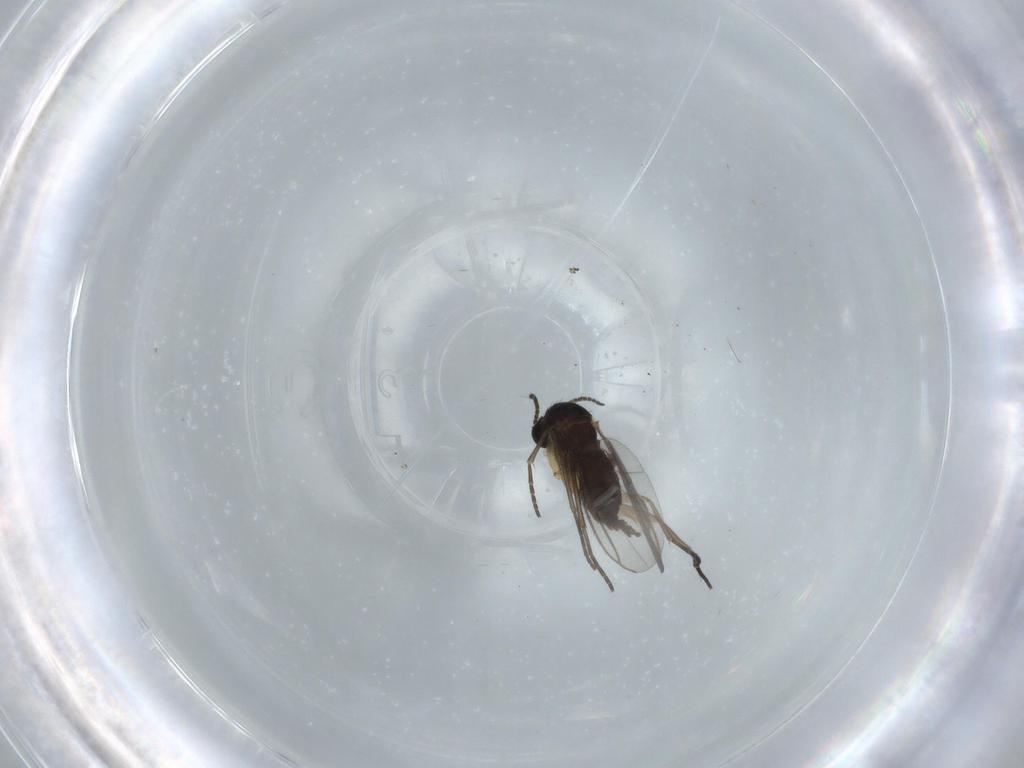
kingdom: Animalia
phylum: Arthropoda
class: Insecta
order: Diptera
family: Sciaridae
